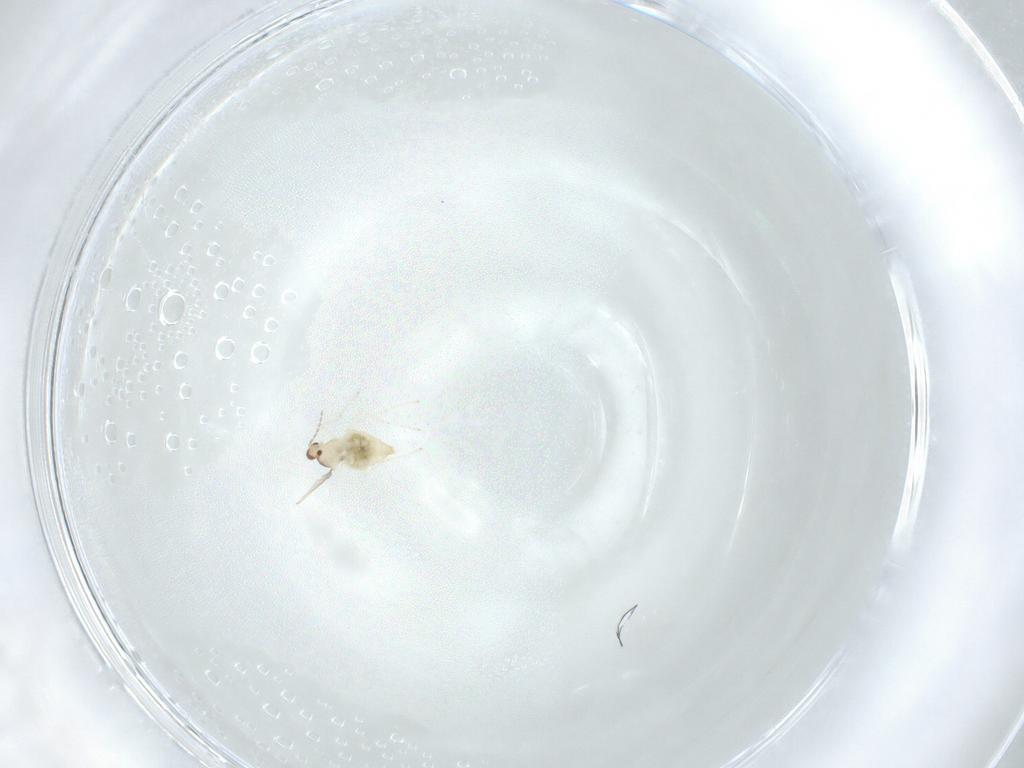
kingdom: Animalia
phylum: Arthropoda
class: Insecta
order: Diptera
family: Cecidomyiidae
